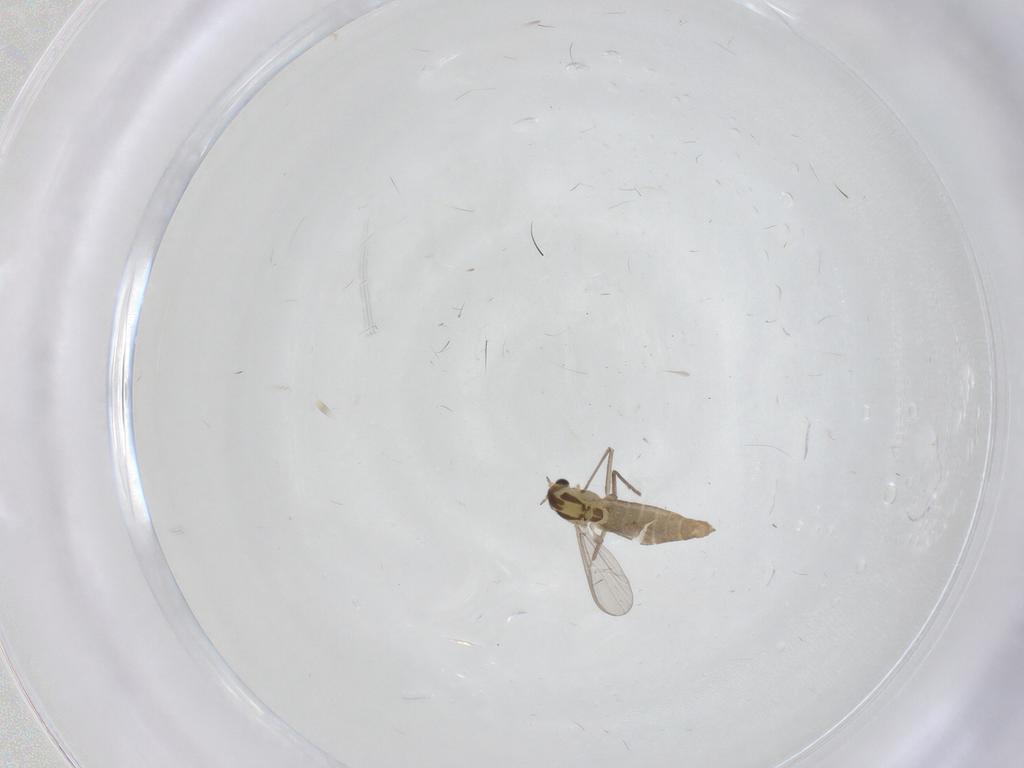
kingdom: Animalia
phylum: Arthropoda
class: Insecta
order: Diptera
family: Chironomidae
